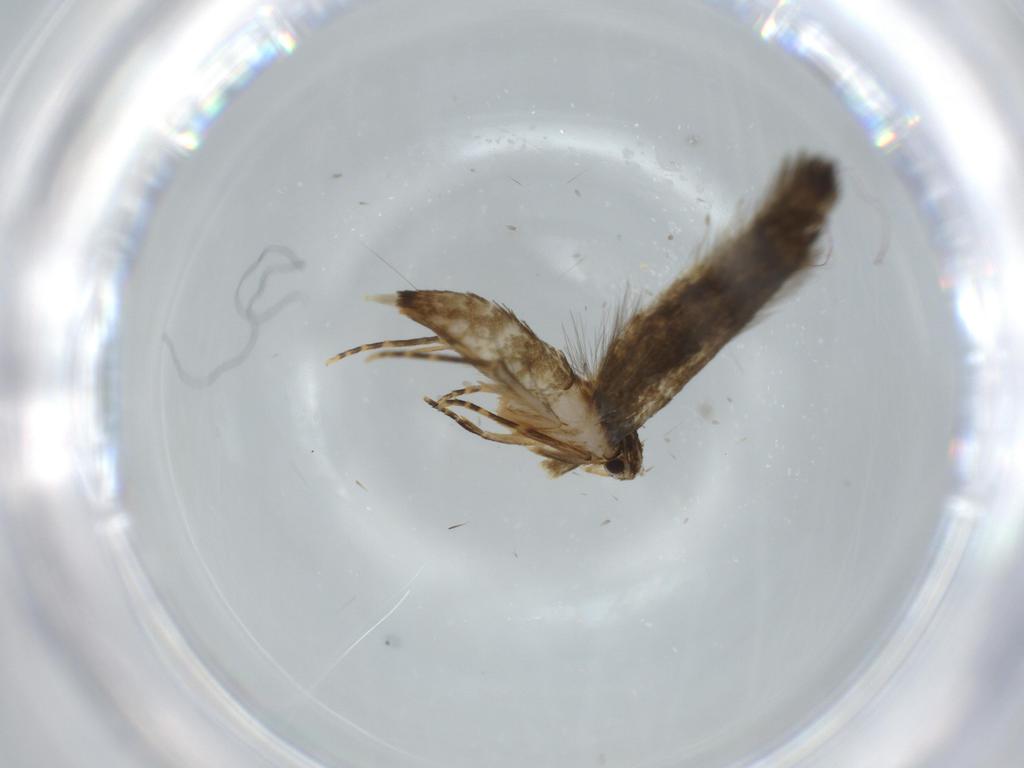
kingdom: Animalia
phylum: Arthropoda
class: Insecta
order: Lepidoptera
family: Tineidae
